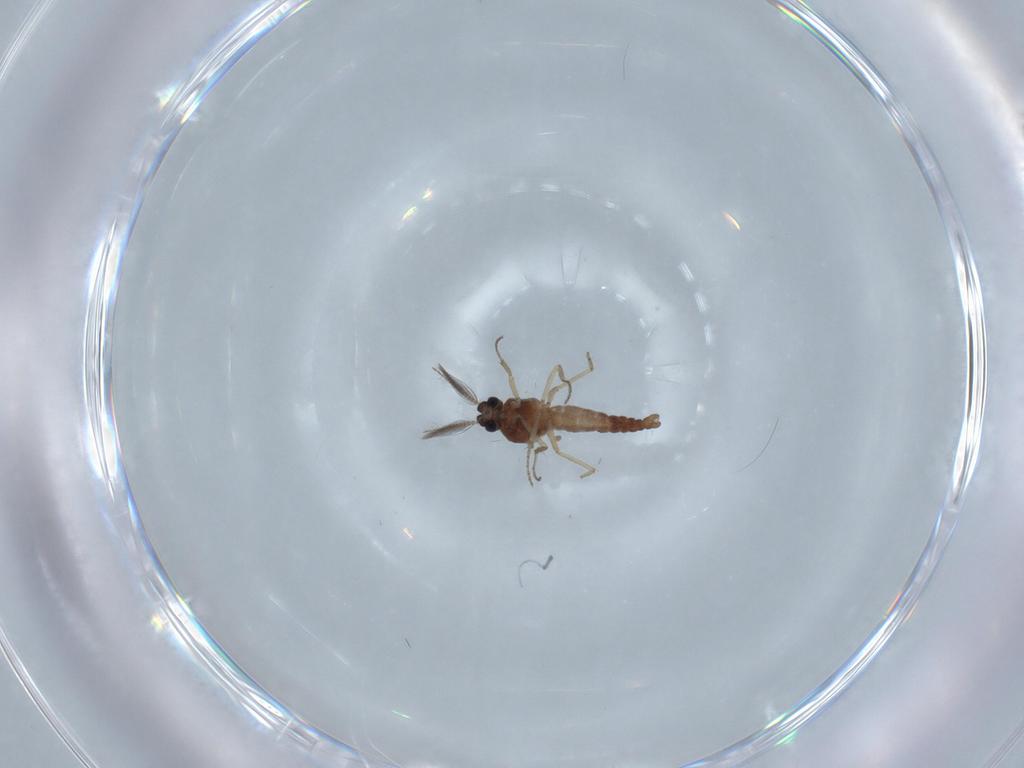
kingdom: Animalia
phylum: Arthropoda
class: Insecta
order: Diptera
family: Ceratopogonidae
